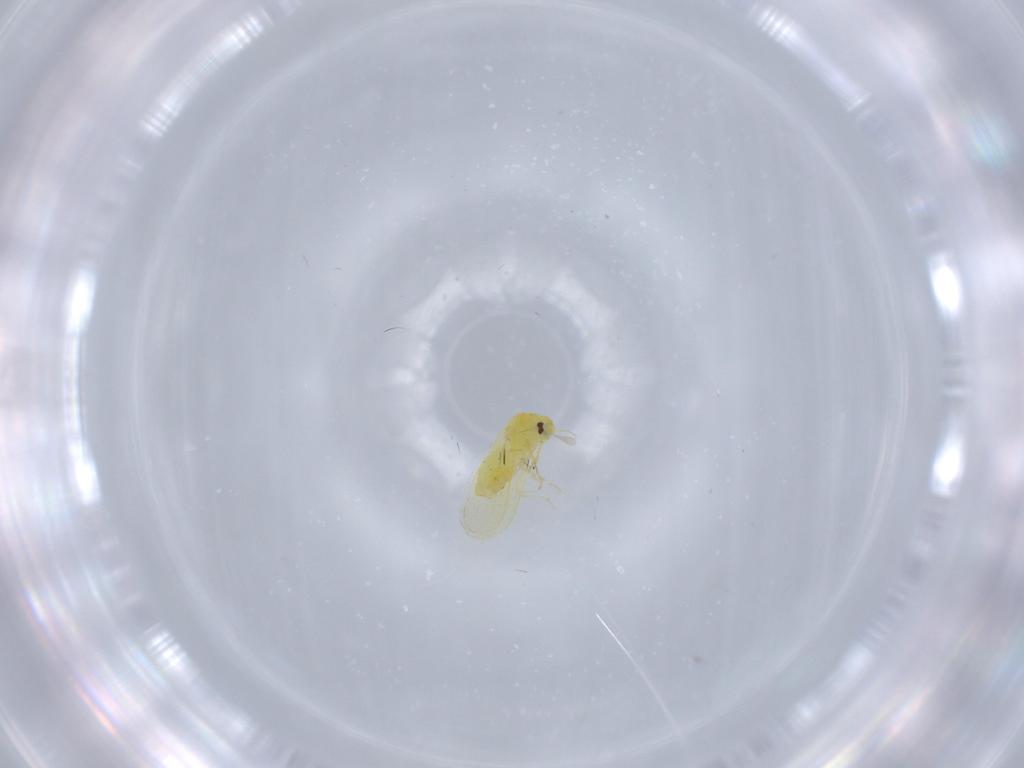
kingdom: Animalia
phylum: Arthropoda
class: Insecta
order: Hemiptera
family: Aleyrodidae
